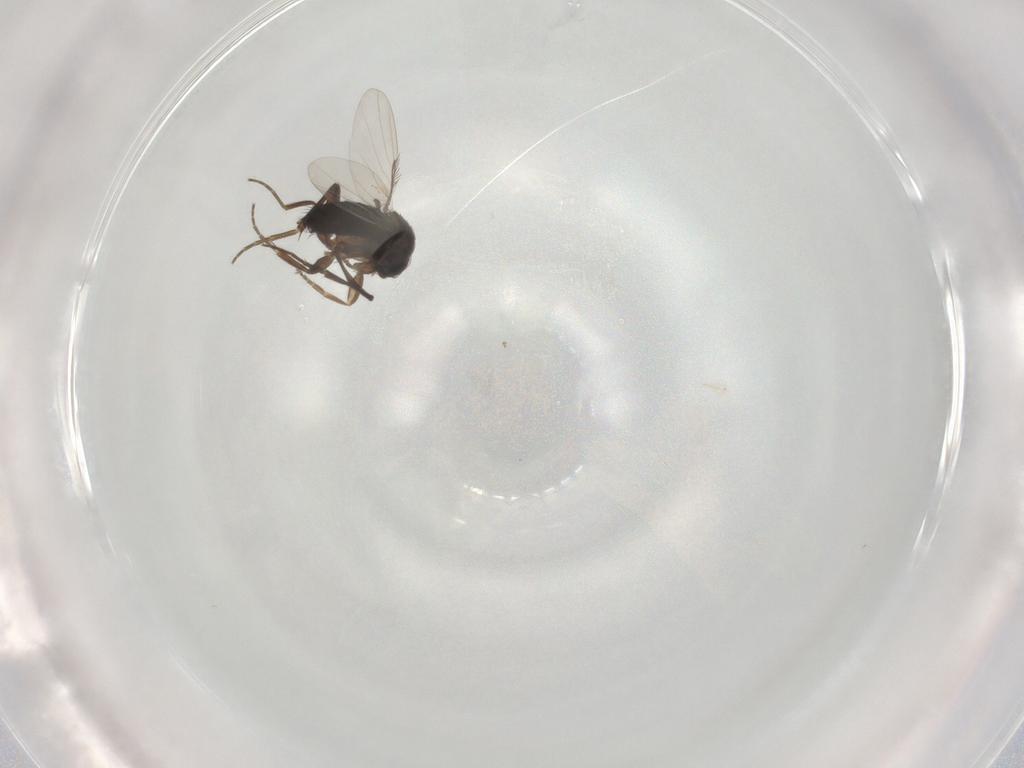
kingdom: Animalia
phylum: Arthropoda
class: Insecta
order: Diptera
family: Phoridae
